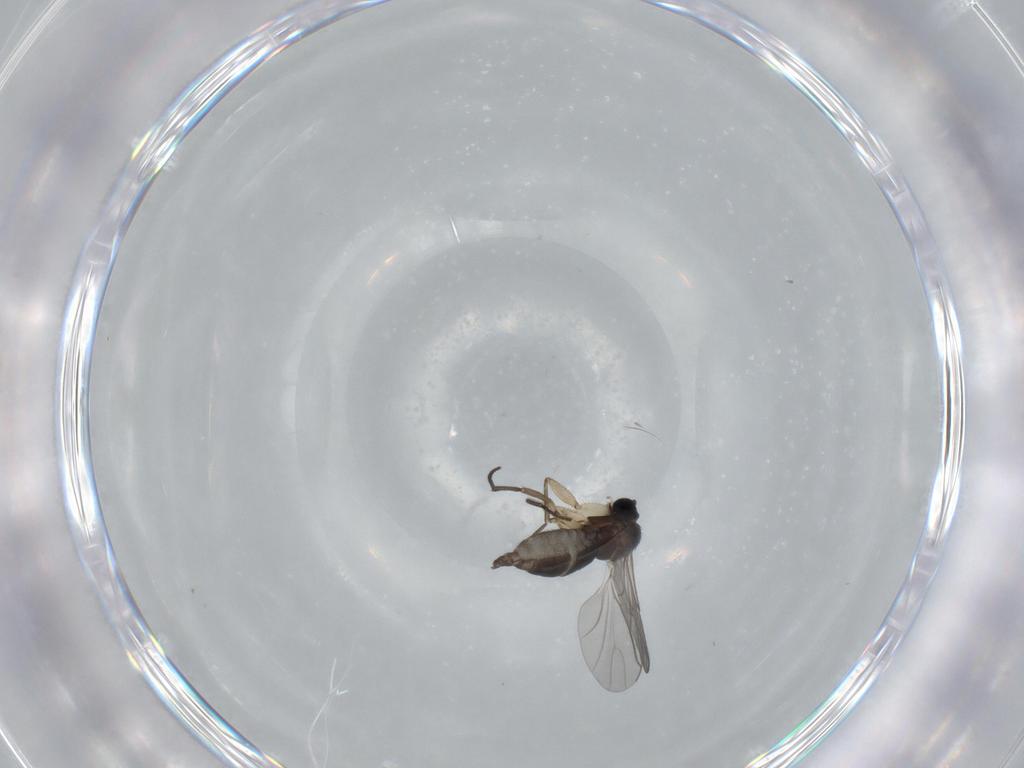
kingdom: Animalia
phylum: Arthropoda
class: Insecta
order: Diptera
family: Sciaridae
